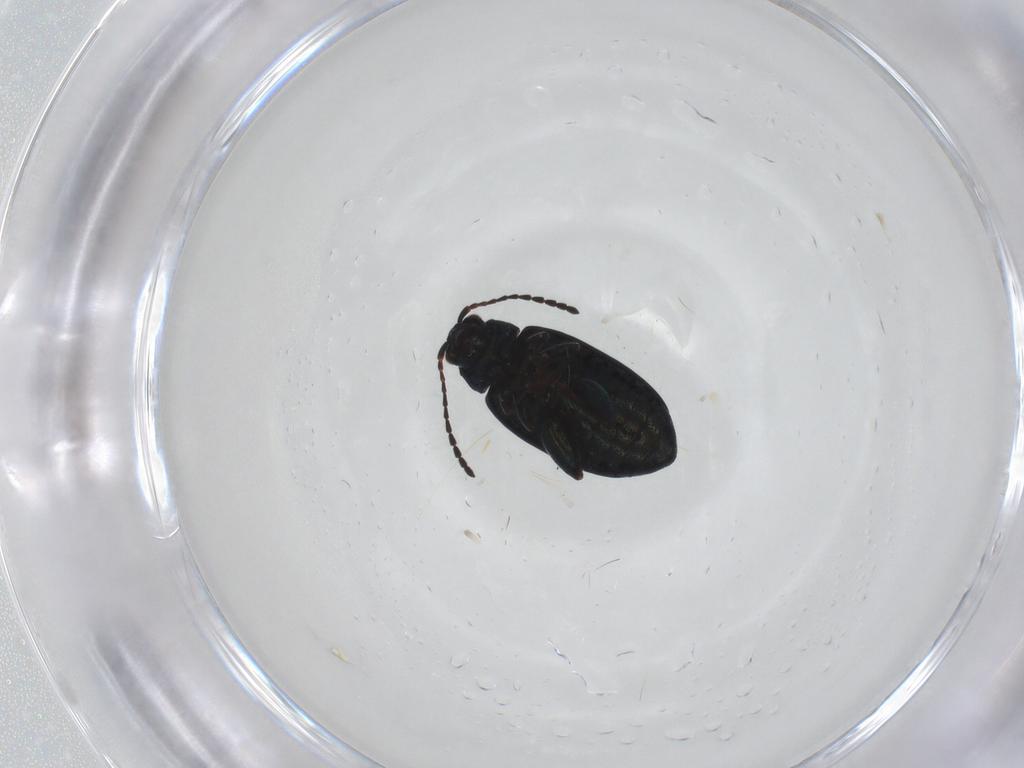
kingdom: Animalia
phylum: Arthropoda
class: Insecta
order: Coleoptera
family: Chrysomelidae
